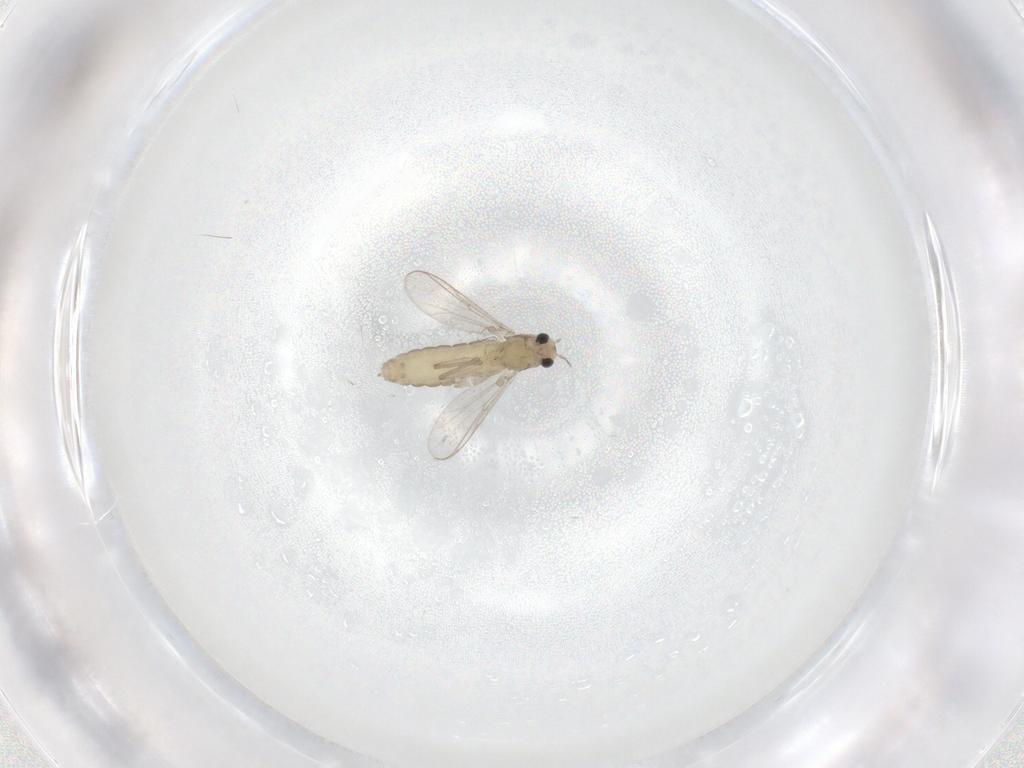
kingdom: Animalia
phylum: Arthropoda
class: Insecta
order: Diptera
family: Chironomidae
